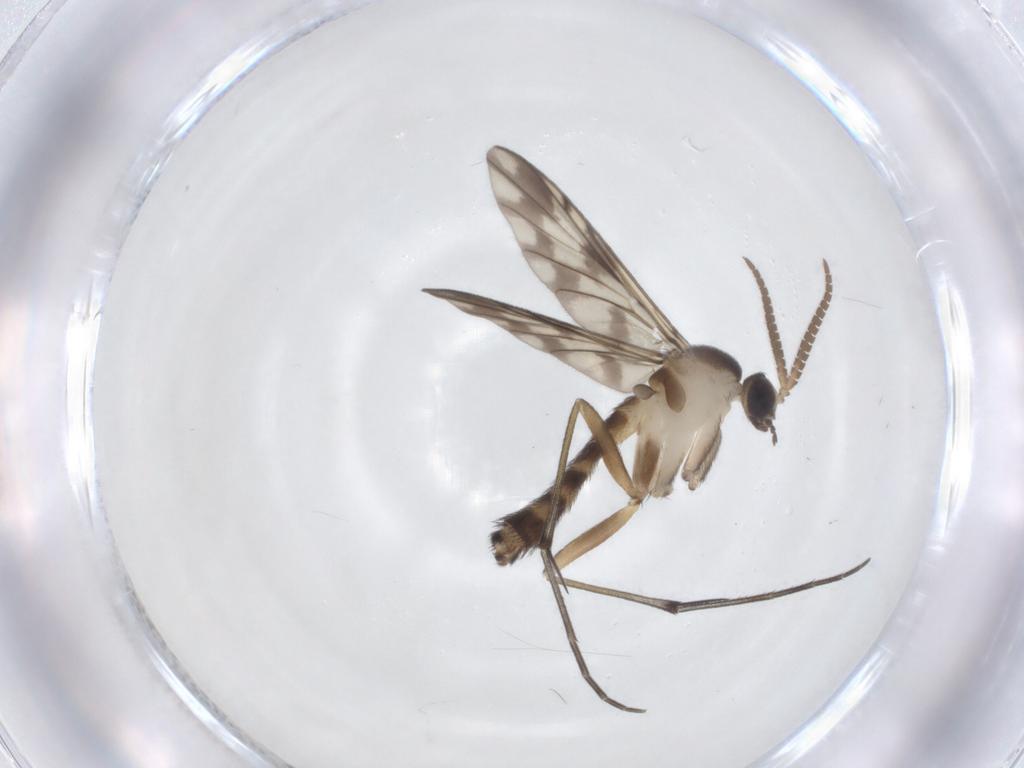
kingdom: Animalia
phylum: Arthropoda
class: Insecta
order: Diptera
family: Keroplatidae
